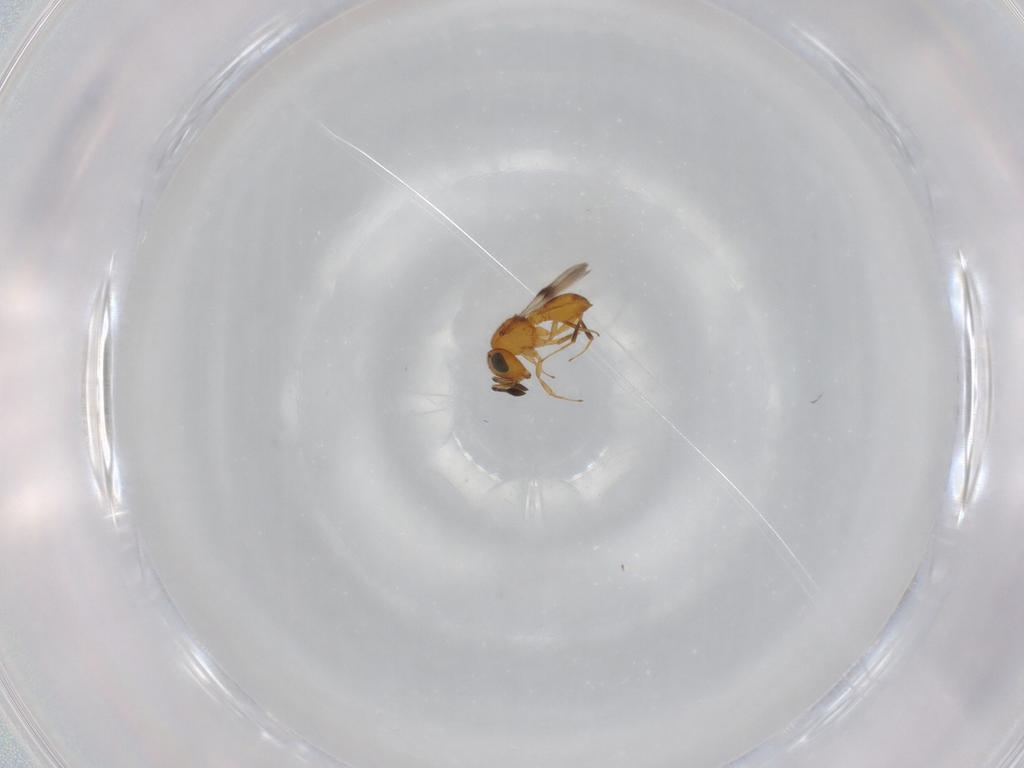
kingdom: Animalia
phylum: Arthropoda
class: Insecta
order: Hymenoptera
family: Scelionidae
